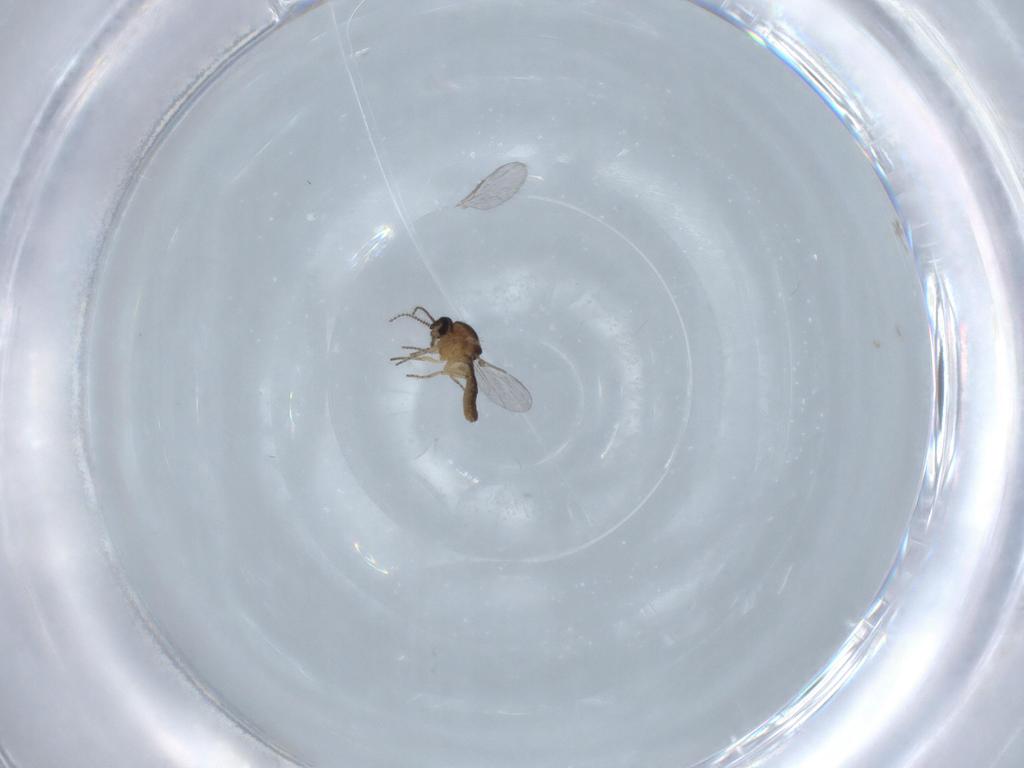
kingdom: Animalia
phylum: Arthropoda
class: Insecta
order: Diptera
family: Ceratopogonidae
